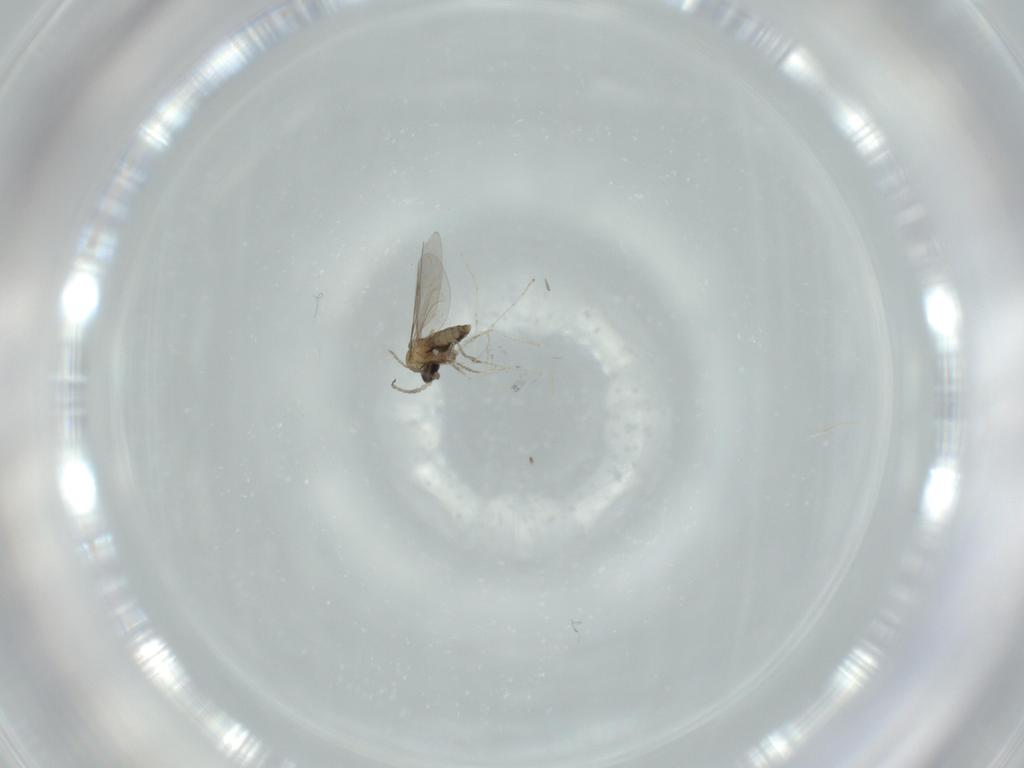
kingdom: Animalia
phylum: Arthropoda
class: Insecta
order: Diptera
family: Cecidomyiidae
